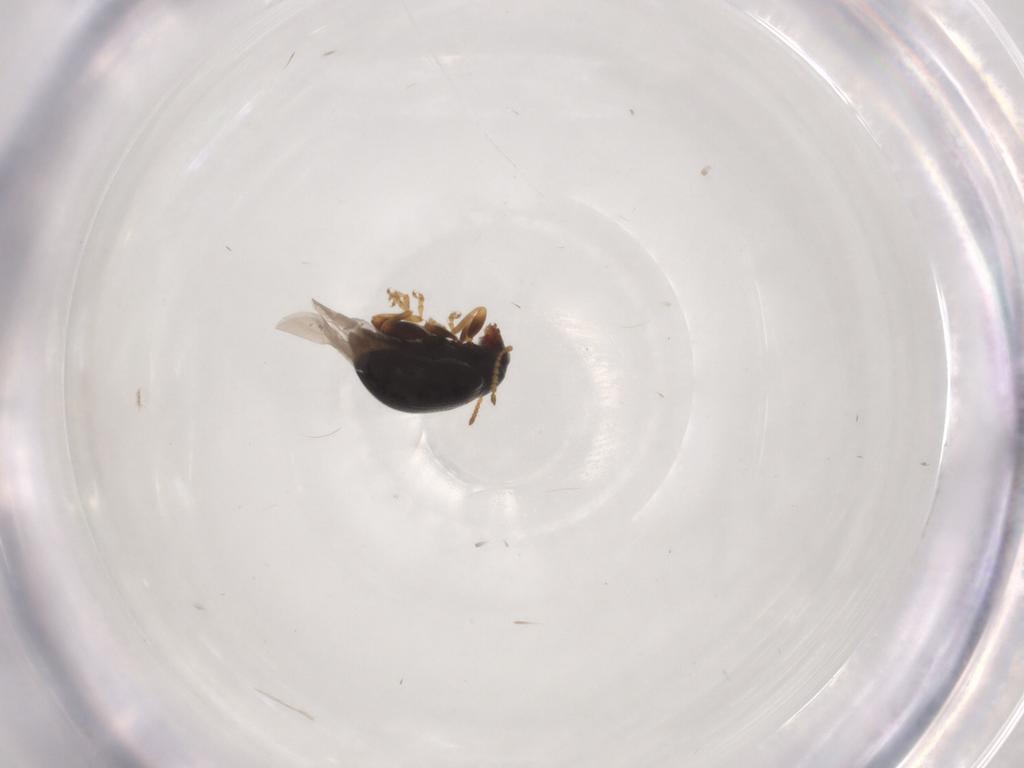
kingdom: Animalia
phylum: Arthropoda
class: Insecta
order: Coleoptera
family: Chrysomelidae
